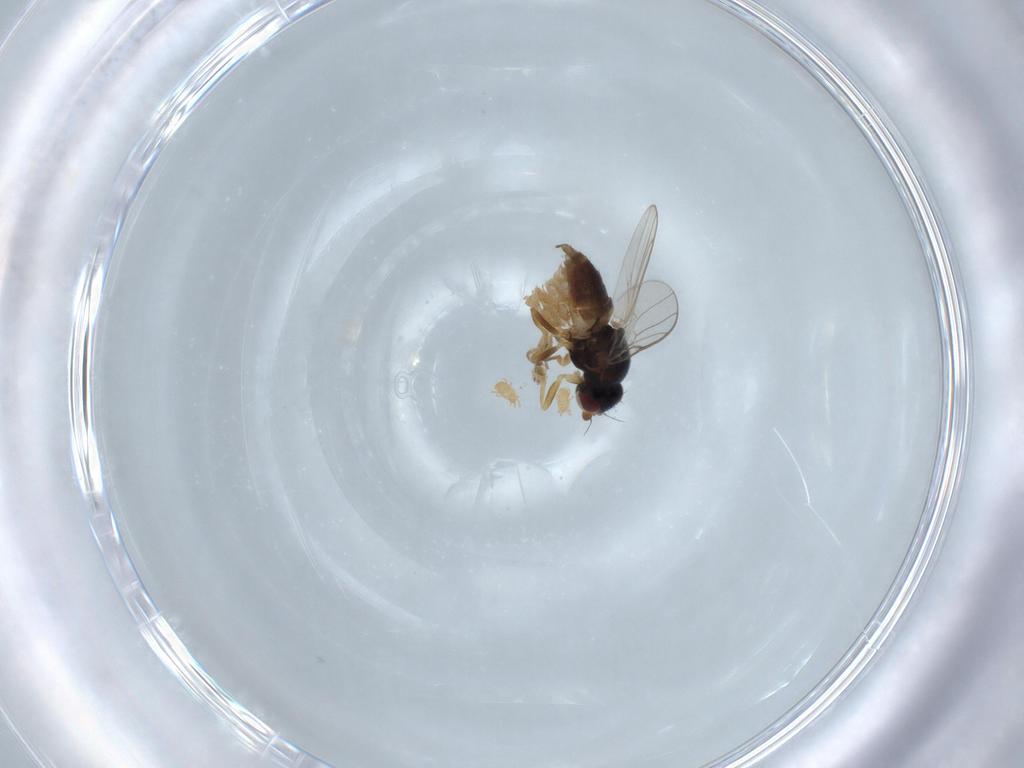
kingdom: Animalia
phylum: Arthropoda
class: Insecta
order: Diptera
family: Chloropidae
